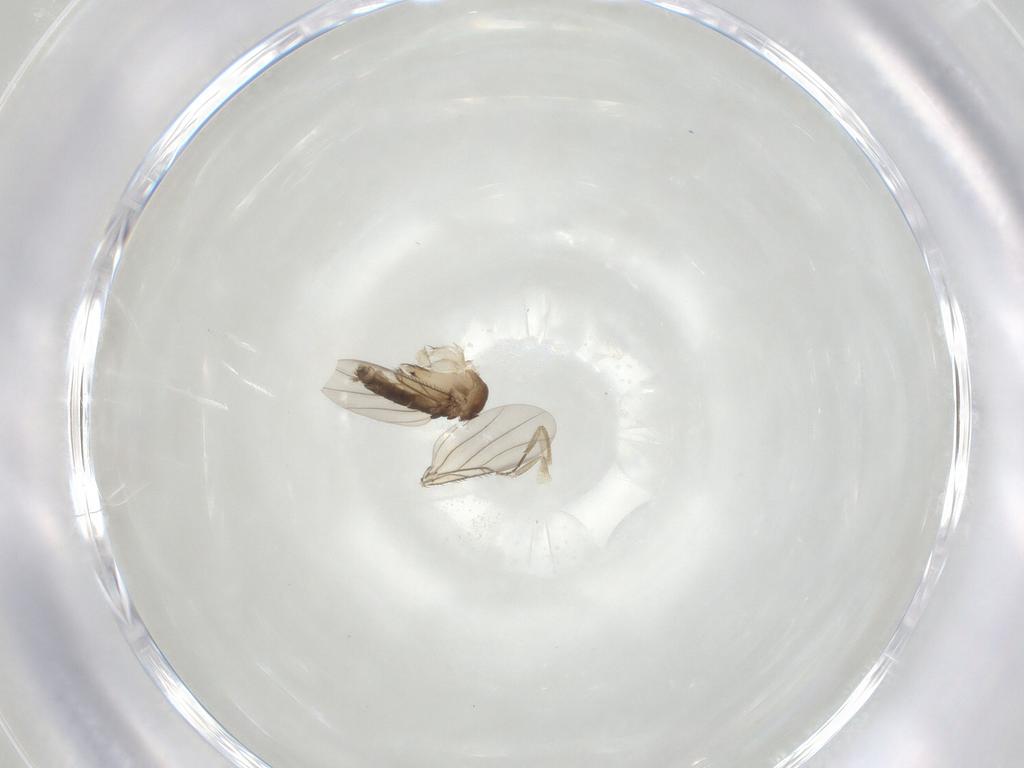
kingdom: Animalia
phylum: Arthropoda
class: Insecta
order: Diptera
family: Phoridae
